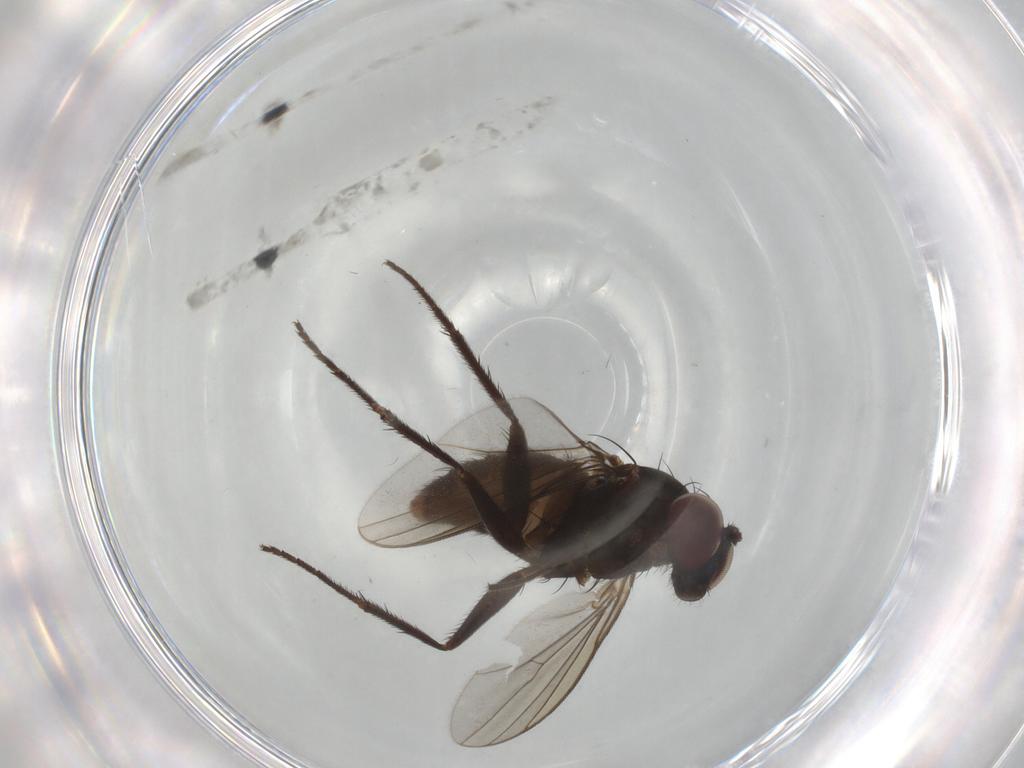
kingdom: Animalia
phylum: Arthropoda
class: Insecta
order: Diptera
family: Dolichopodidae
